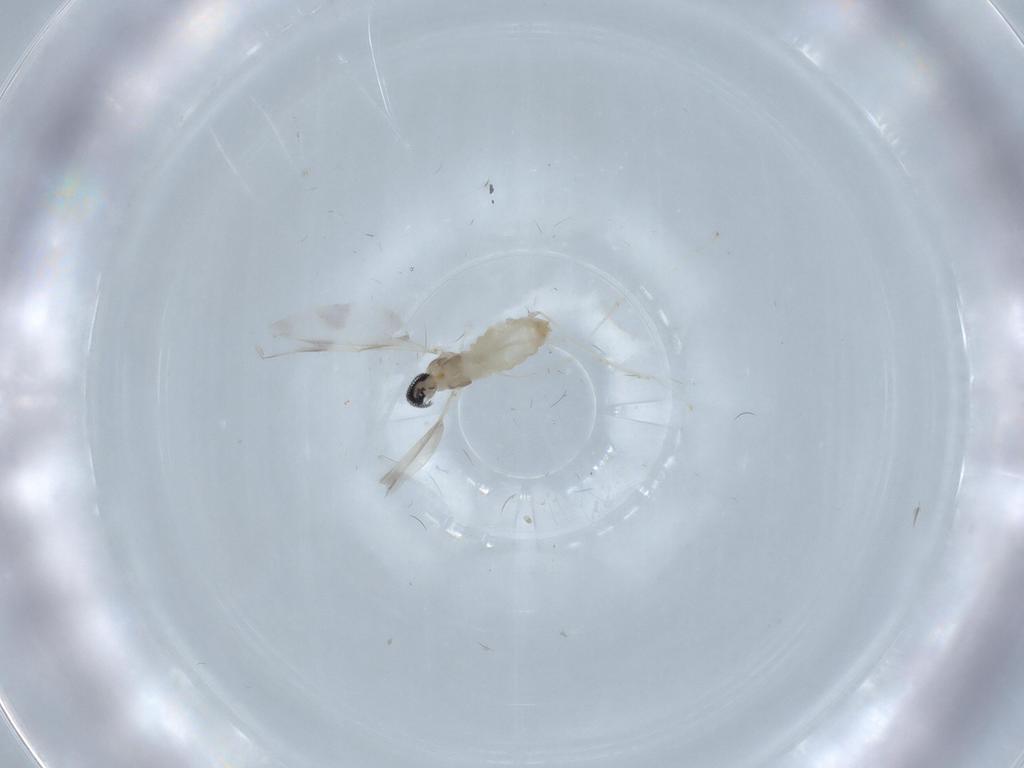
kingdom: Animalia
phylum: Arthropoda
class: Insecta
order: Diptera
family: Cecidomyiidae
